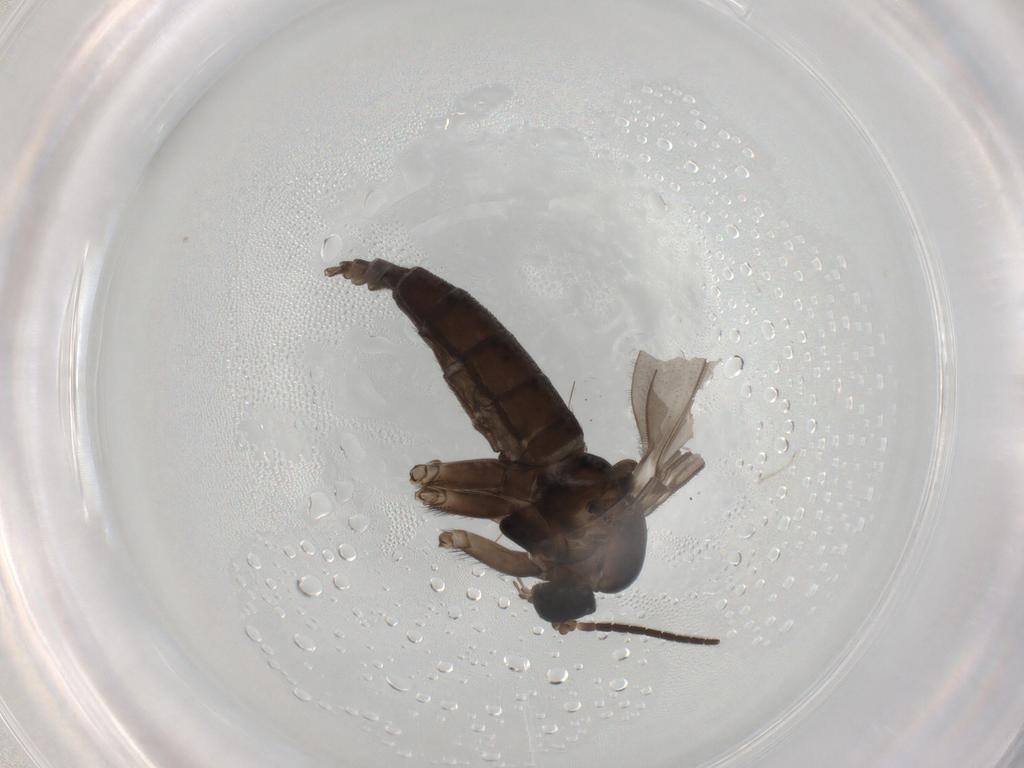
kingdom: Animalia
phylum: Arthropoda
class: Insecta
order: Diptera
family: Sciaridae
